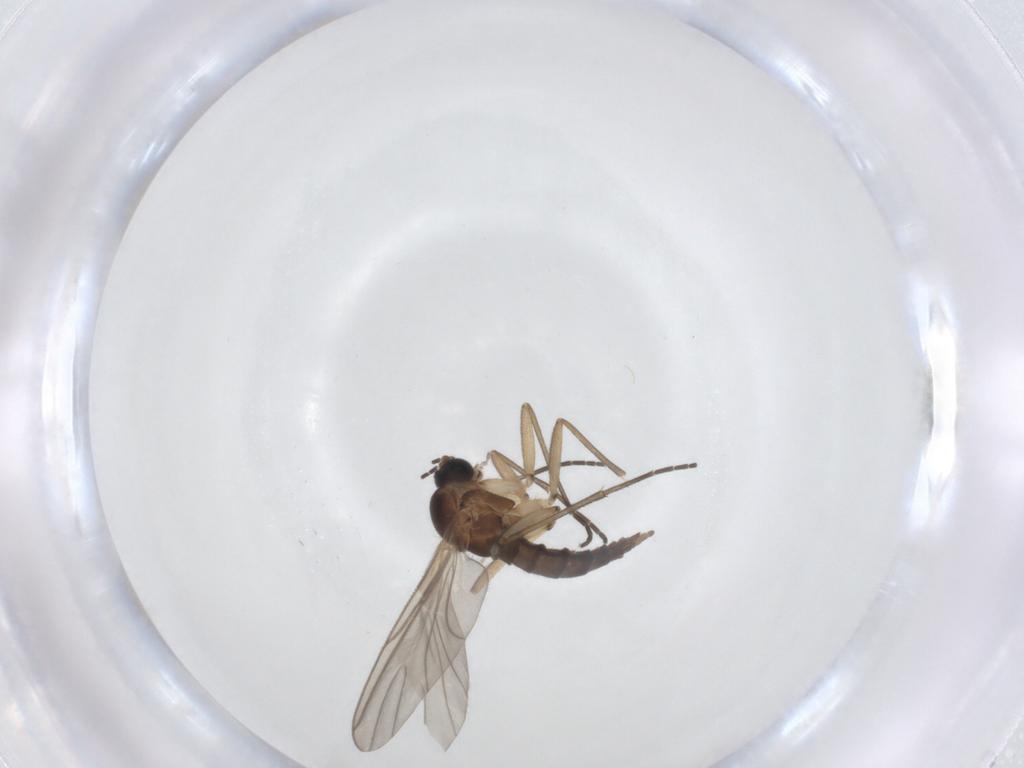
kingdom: Animalia
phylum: Arthropoda
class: Insecta
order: Diptera
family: Sciaridae
